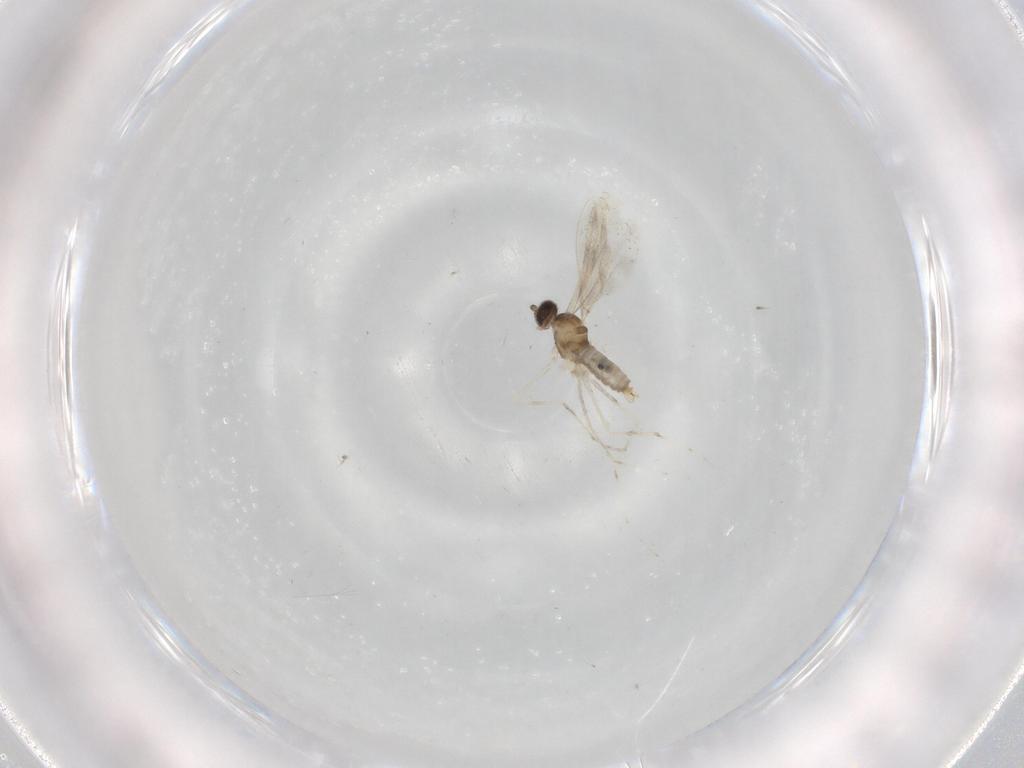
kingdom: Animalia
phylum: Arthropoda
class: Insecta
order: Diptera
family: Cecidomyiidae
